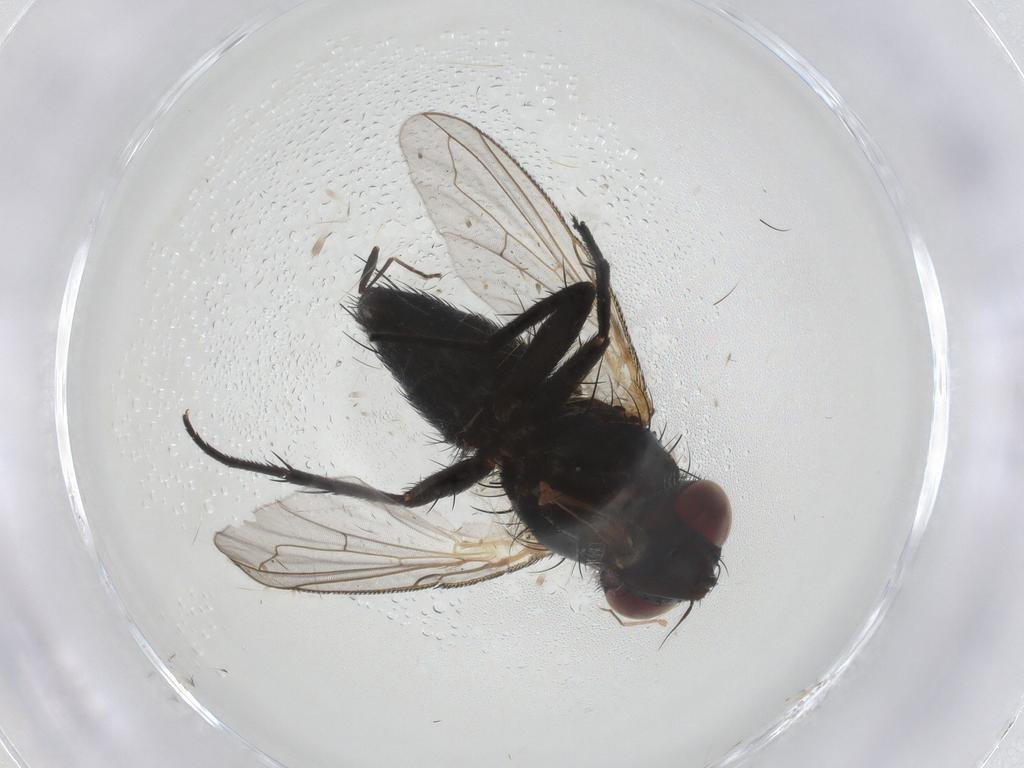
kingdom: Animalia
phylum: Arthropoda
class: Insecta
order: Diptera
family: Tachinidae
